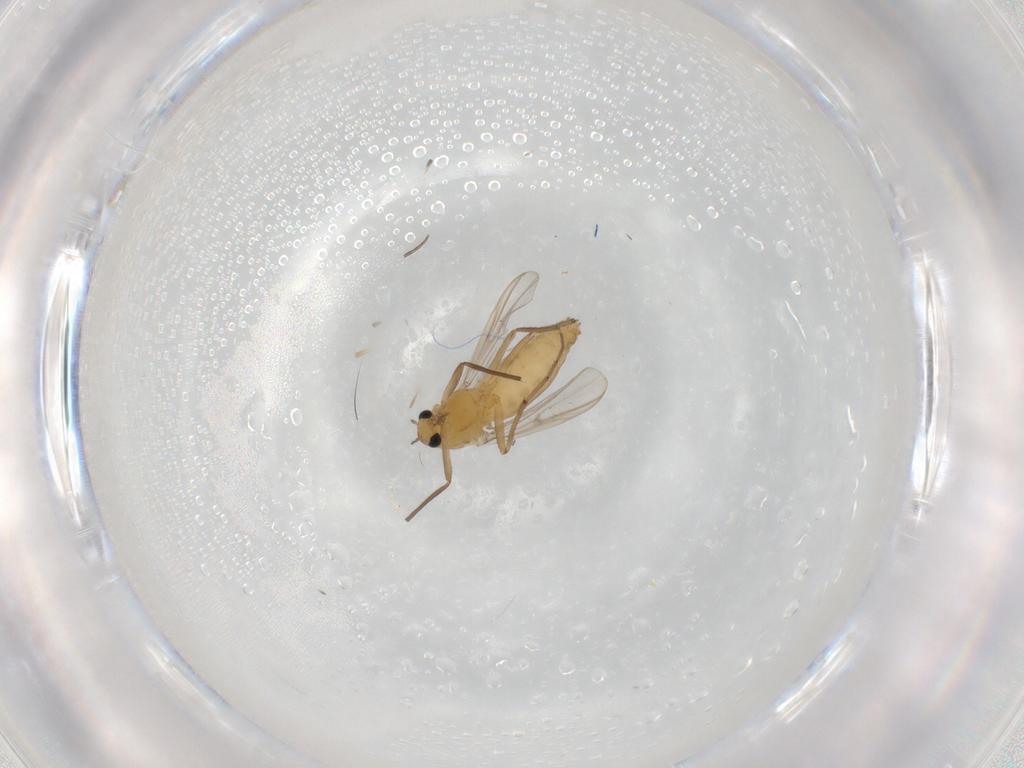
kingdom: Animalia
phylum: Arthropoda
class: Insecta
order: Diptera
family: Chironomidae
